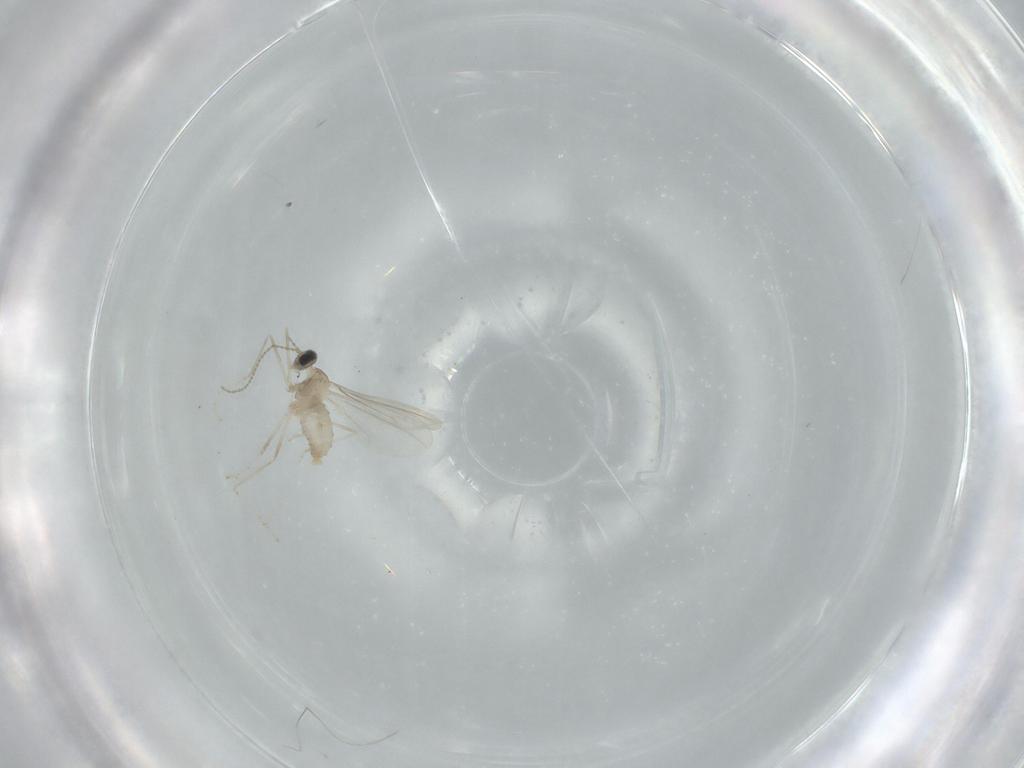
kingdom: Animalia
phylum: Arthropoda
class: Insecta
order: Diptera
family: Cecidomyiidae
